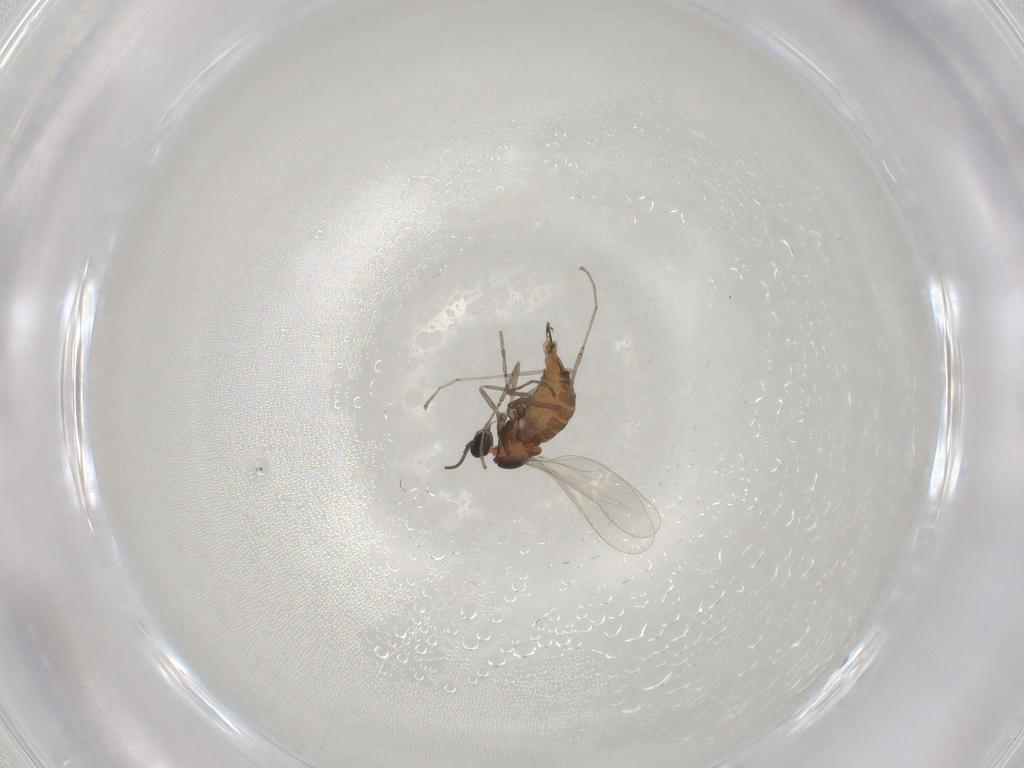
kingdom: Animalia
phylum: Arthropoda
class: Insecta
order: Diptera
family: Cecidomyiidae
